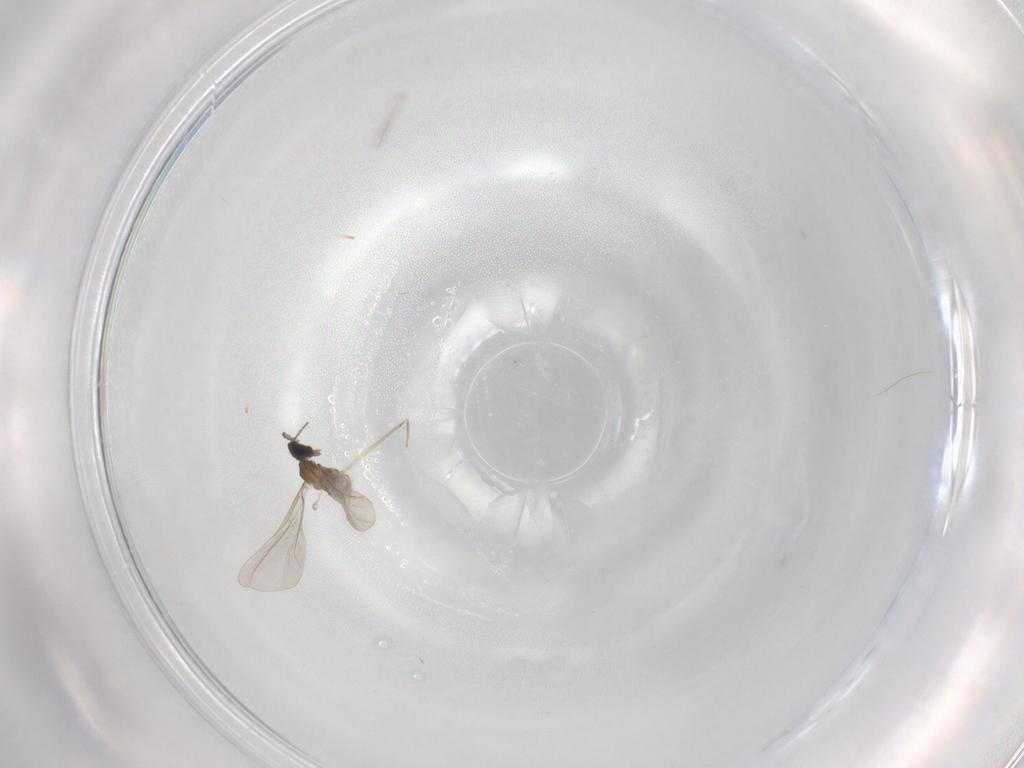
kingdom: Animalia
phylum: Arthropoda
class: Insecta
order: Diptera
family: Cecidomyiidae
